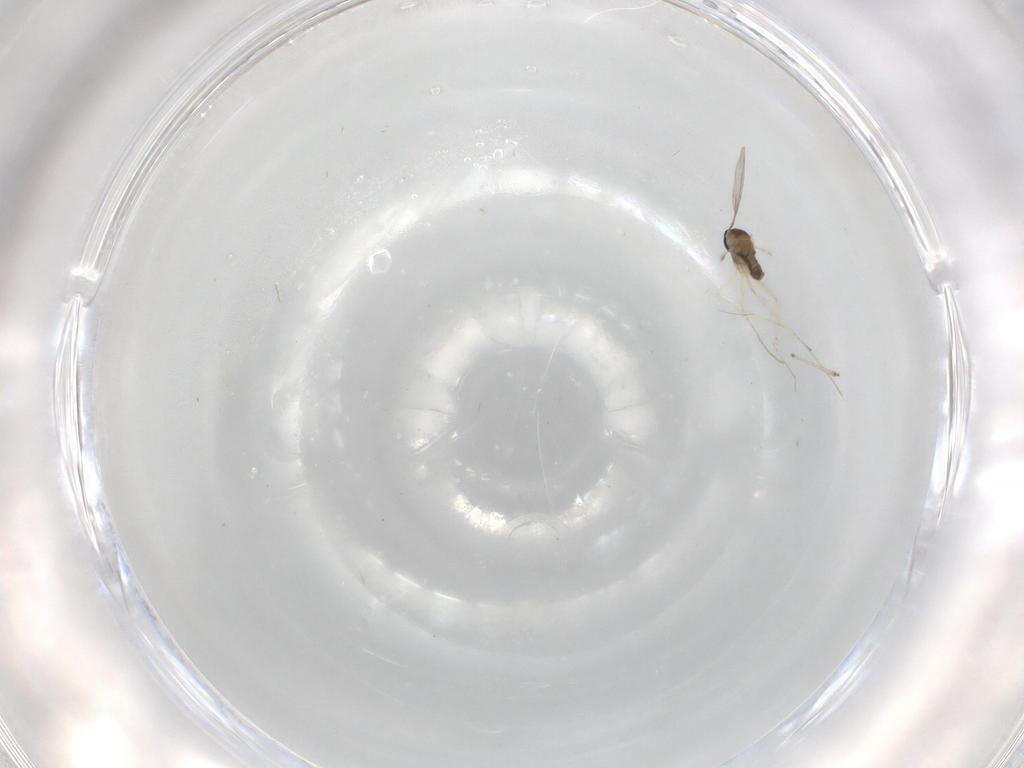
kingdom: Animalia
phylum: Arthropoda
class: Insecta
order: Diptera
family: Cecidomyiidae
